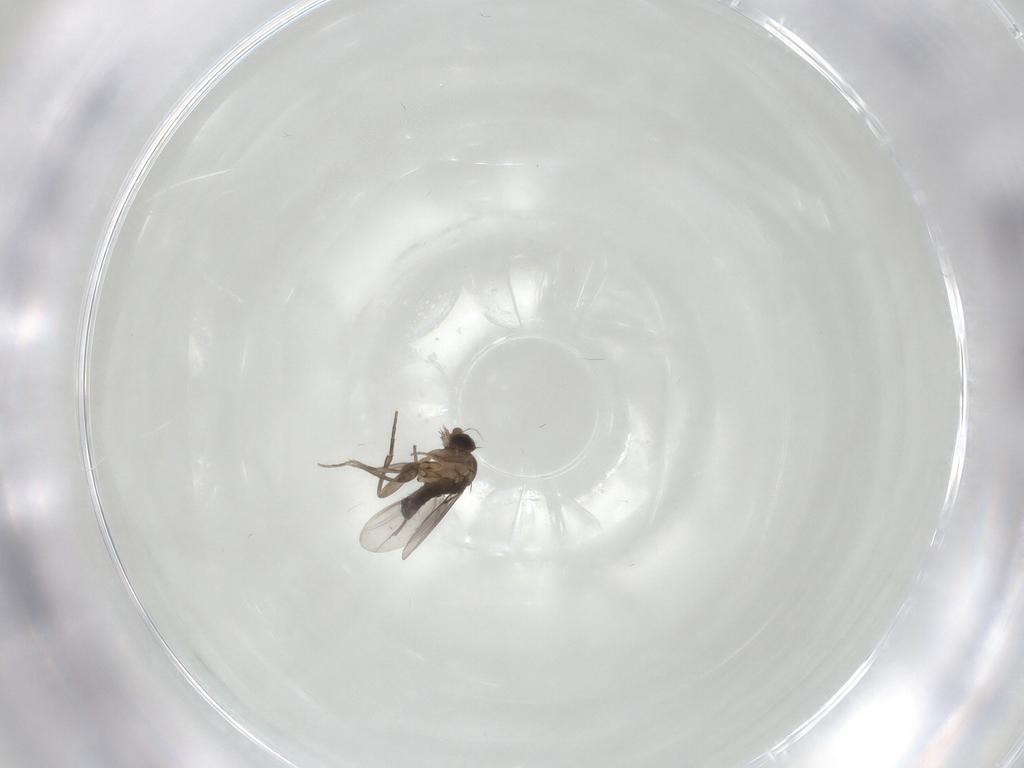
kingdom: Animalia
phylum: Arthropoda
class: Insecta
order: Diptera
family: Phoridae
